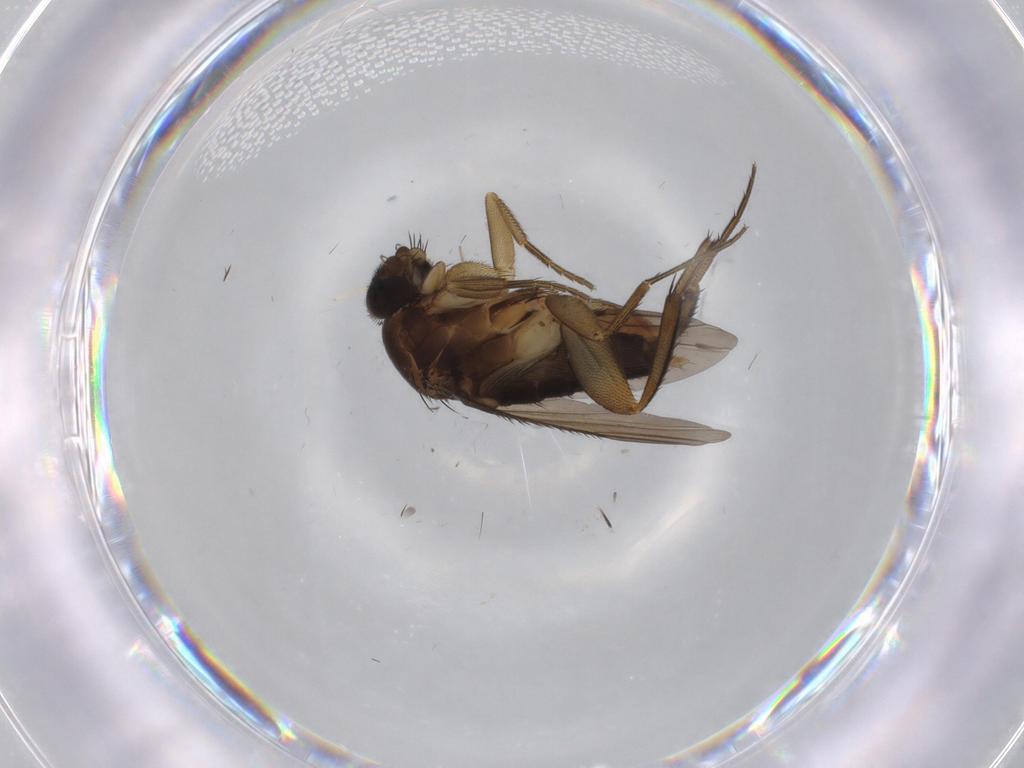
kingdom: Animalia
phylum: Arthropoda
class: Insecta
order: Diptera
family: Phoridae
